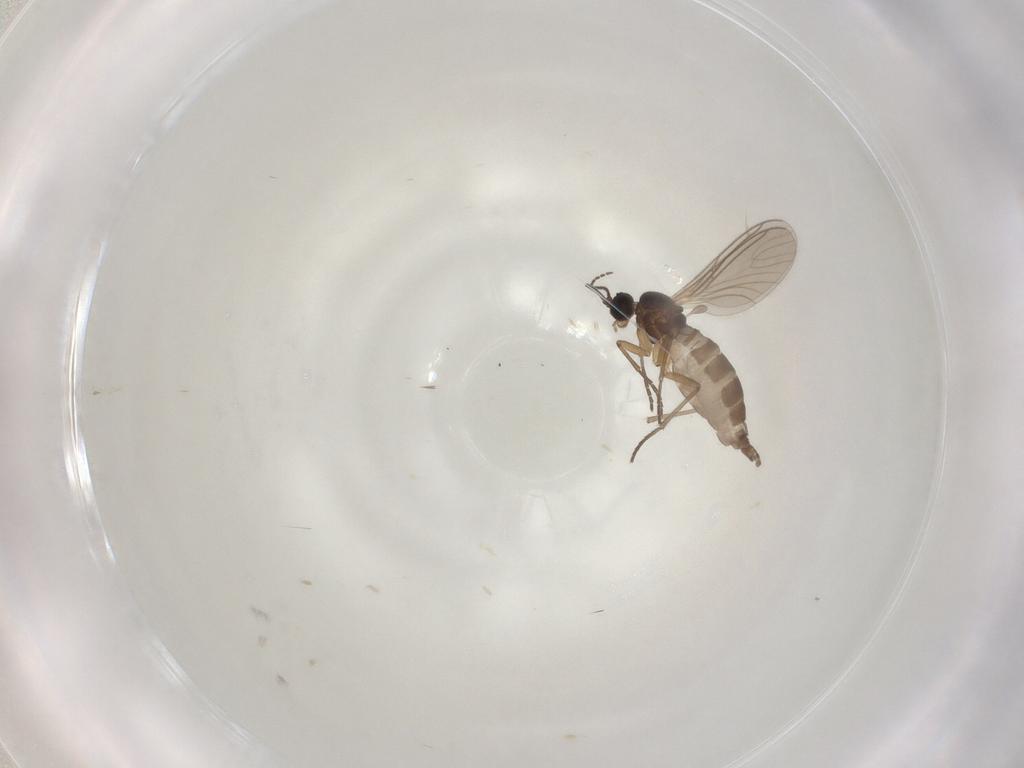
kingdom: Animalia
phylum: Arthropoda
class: Insecta
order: Diptera
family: Sciaridae
